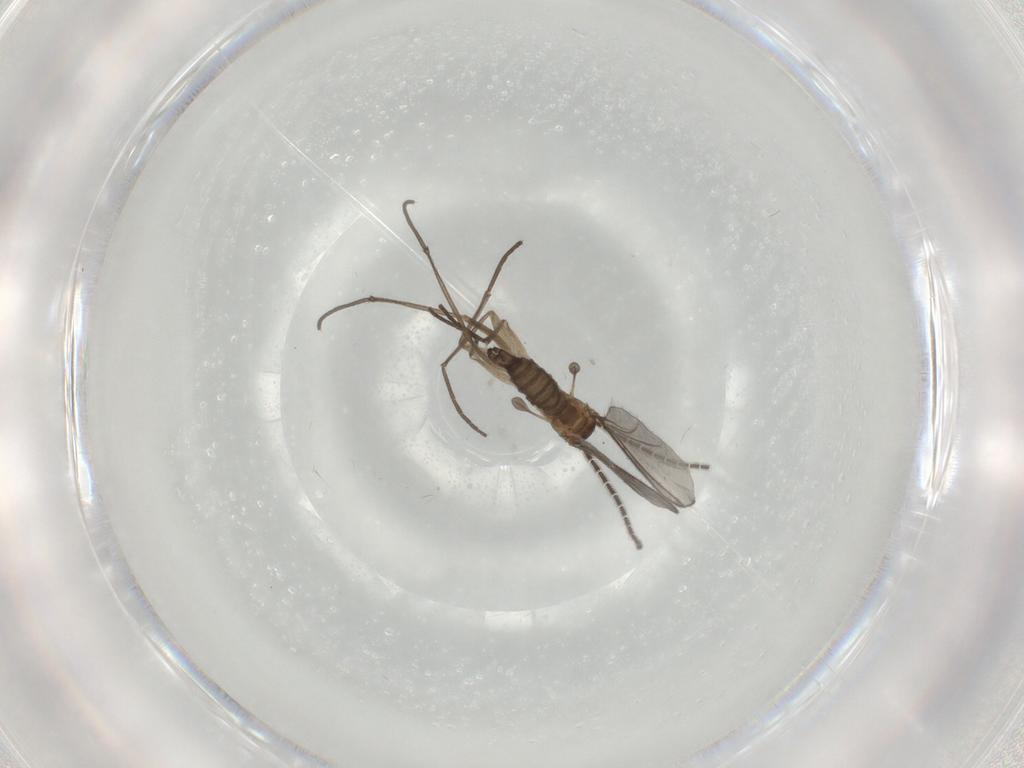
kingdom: Animalia
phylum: Arthropoda
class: Insecta
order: Diptera
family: Sciaridae
